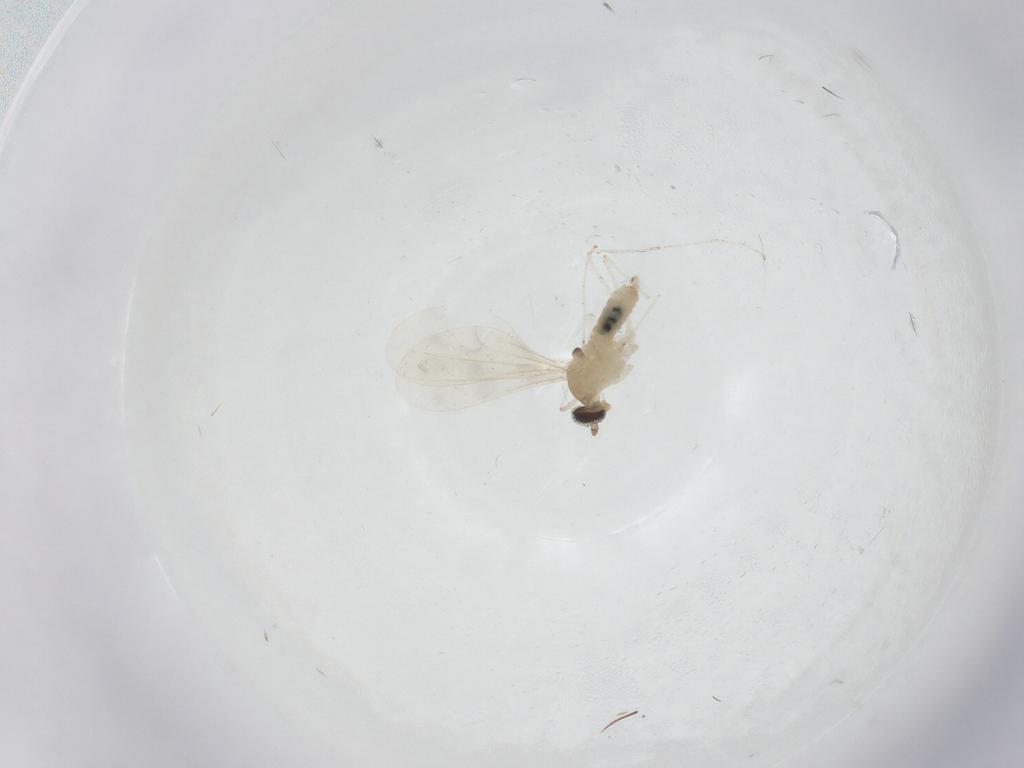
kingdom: Animalia
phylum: Arthropoda
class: Insecta
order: Diptera
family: Cecidomyiidae
